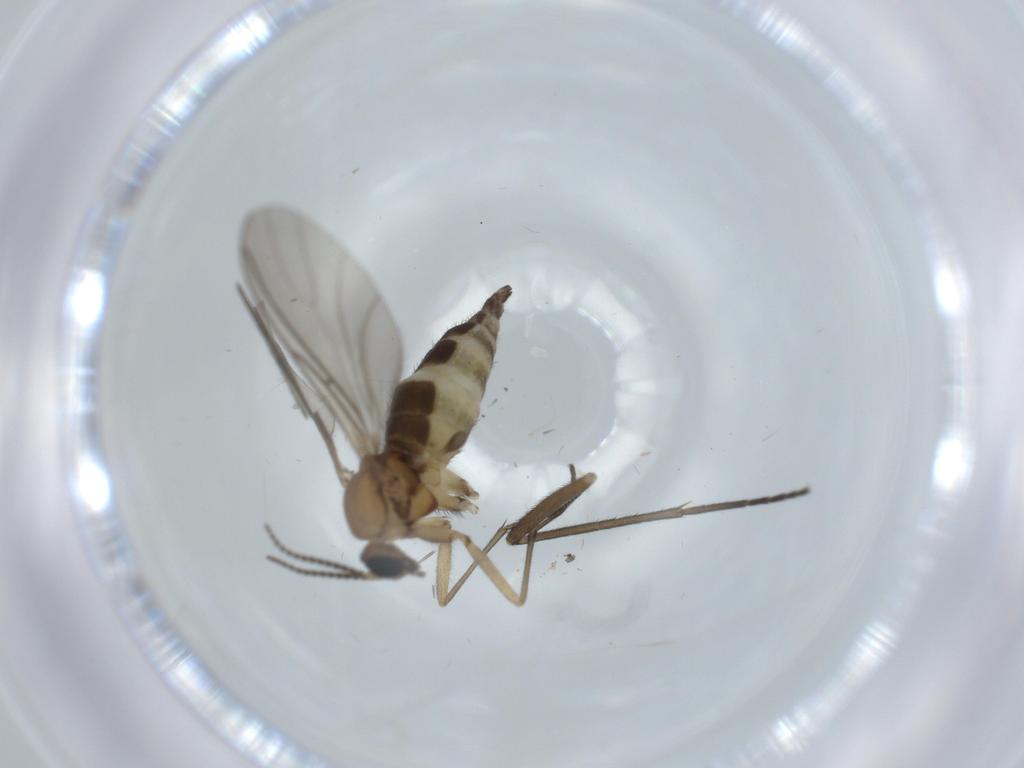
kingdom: Animalia
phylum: Arthropoda
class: Insecta
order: Diptera
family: Sciaridae
